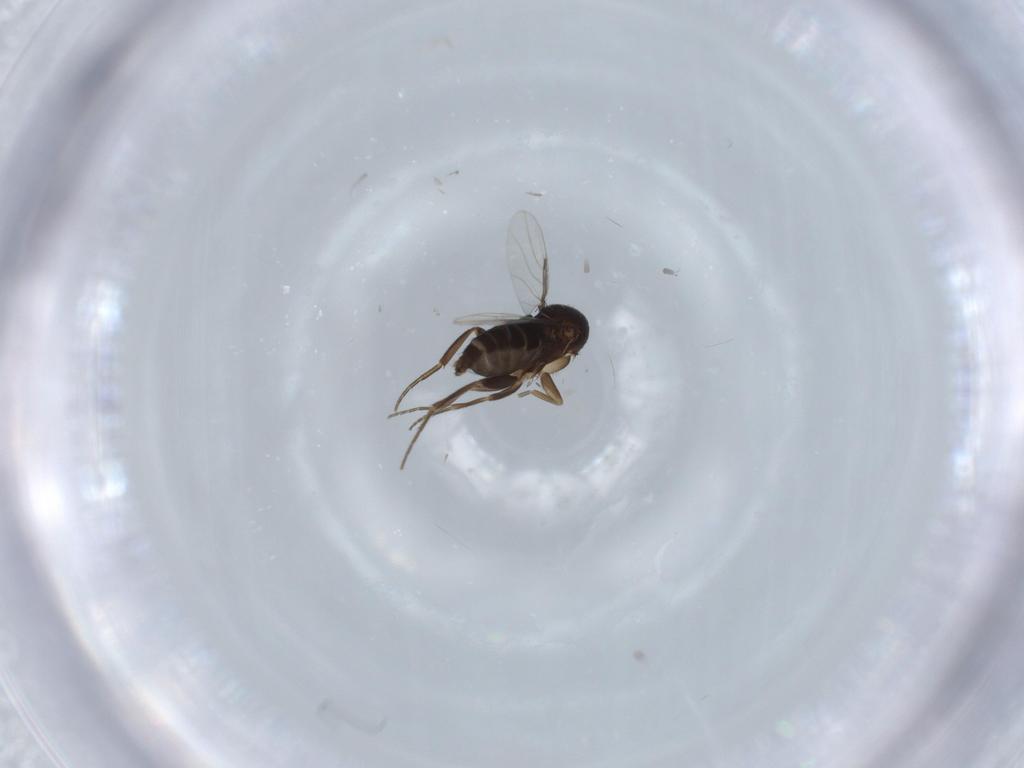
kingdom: Animalia
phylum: Arthropoda
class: Insecta
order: Diptera
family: Phoridae
